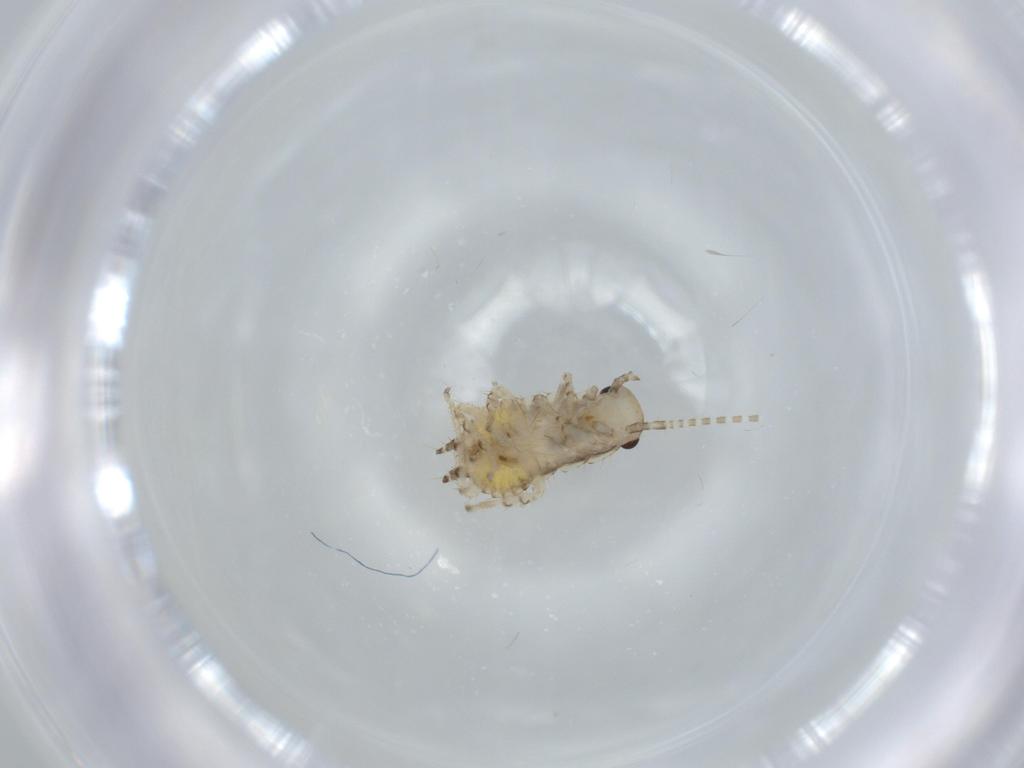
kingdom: Animalia
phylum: Arthropoda
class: Insecta
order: Blattodea
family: Ectobiidae
